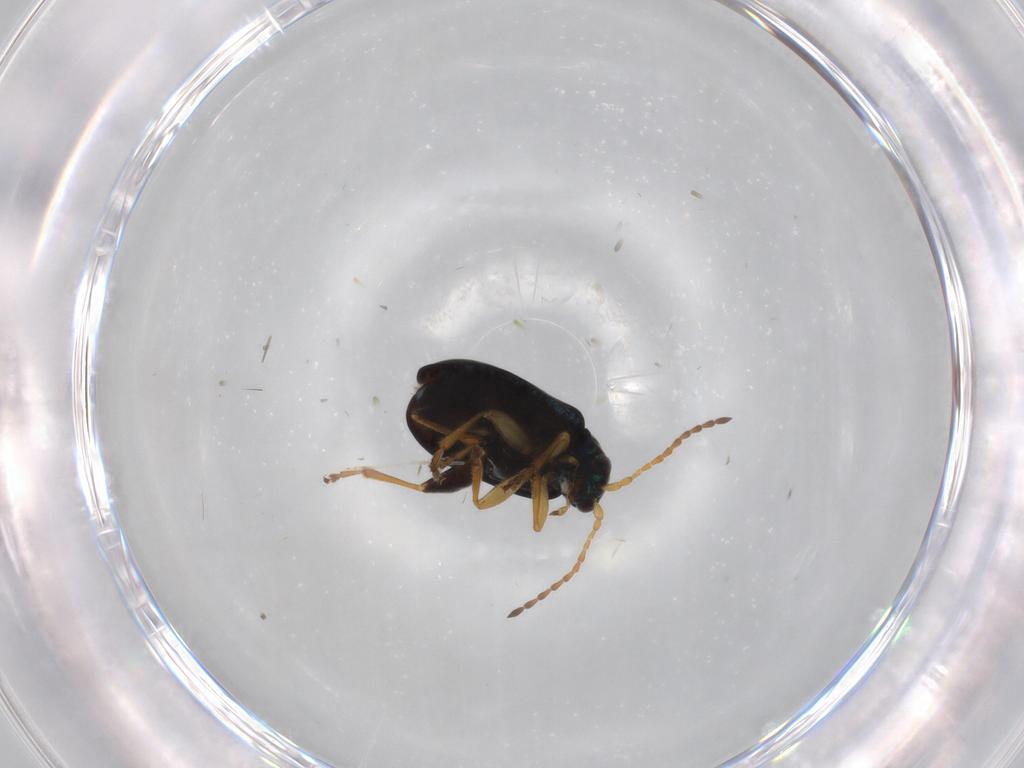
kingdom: Animalia
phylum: Arthropoda
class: Insecta
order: Coleoptera
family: Chrysomelidae
